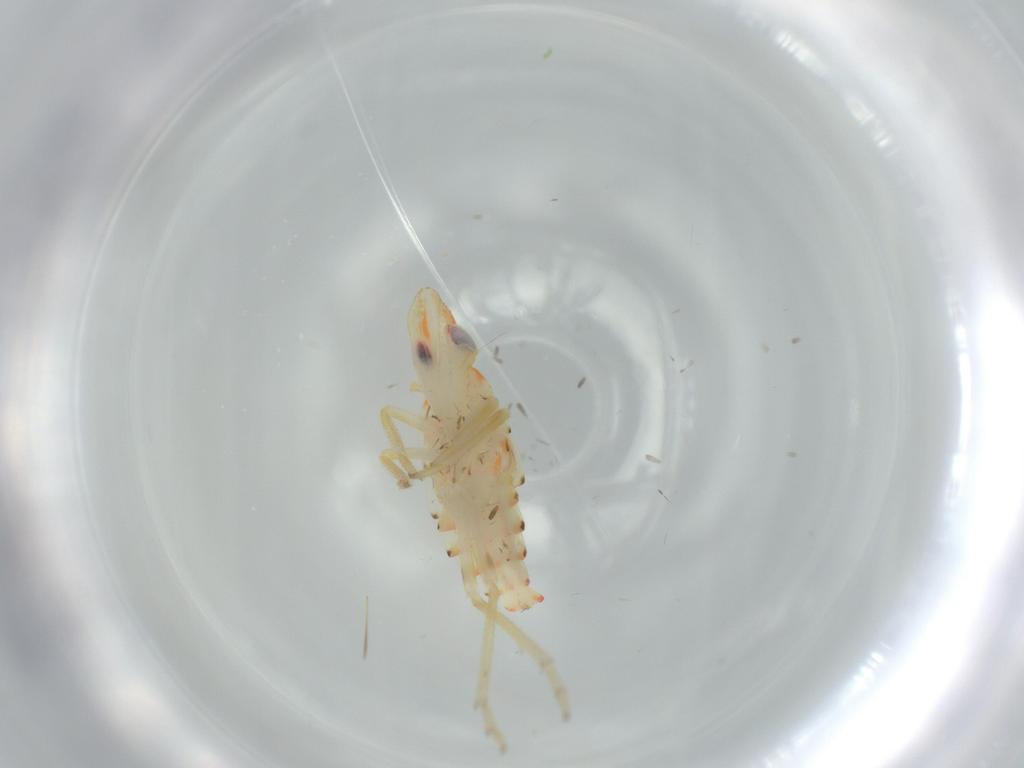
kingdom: Animalia
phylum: Arthropoda
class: Insecta
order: Hemiptera
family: Tropiduchidae
